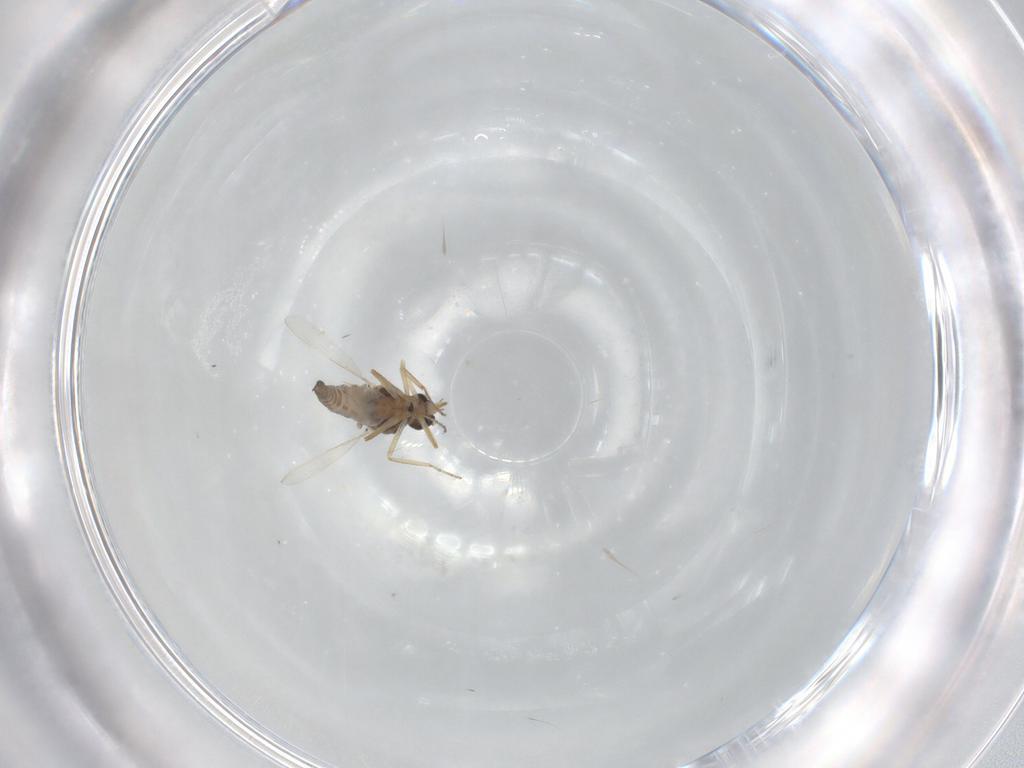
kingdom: Animalia
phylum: Arthropoda
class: Insecta
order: Diptera
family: Ceratopogonidae
